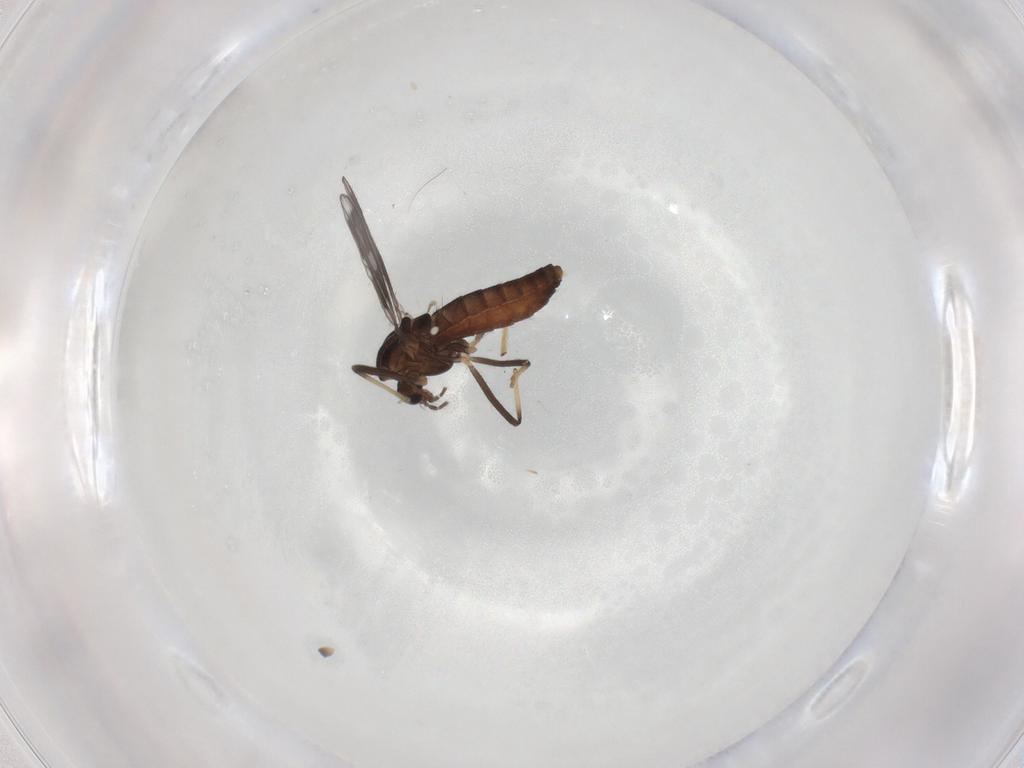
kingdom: Animalia
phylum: Arthropoda
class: Insecta
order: Diptera
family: Chironomidae
